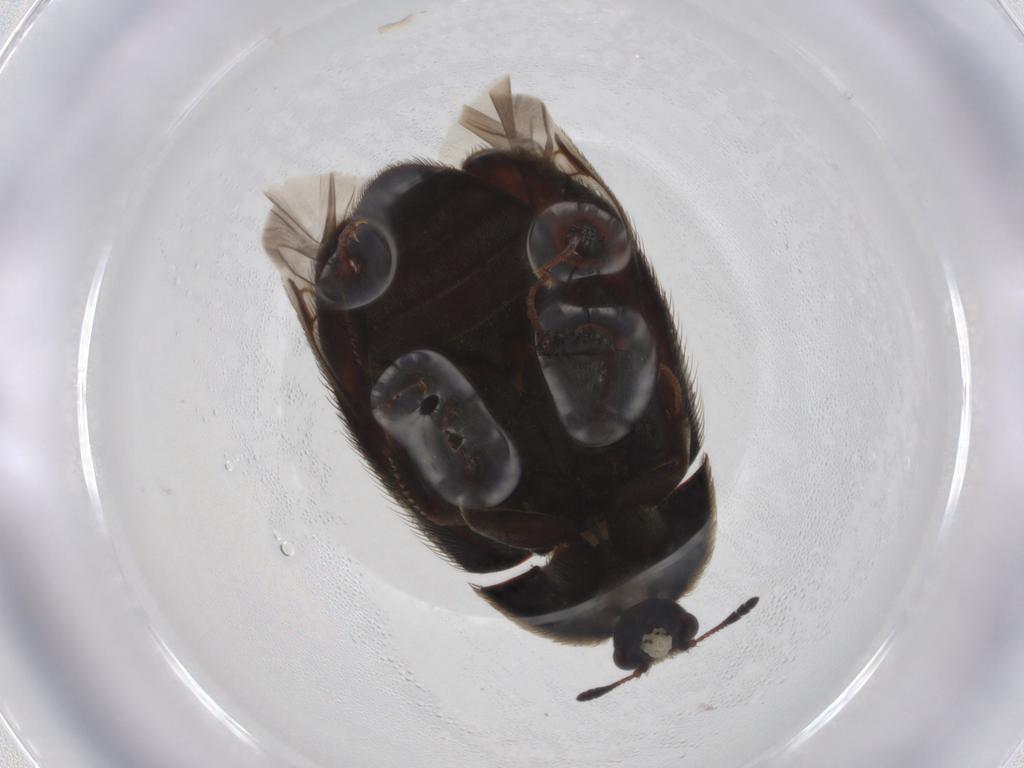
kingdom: Animalia
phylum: Arthropoda
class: Insecta
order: Coleoptera
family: Dermestidae
